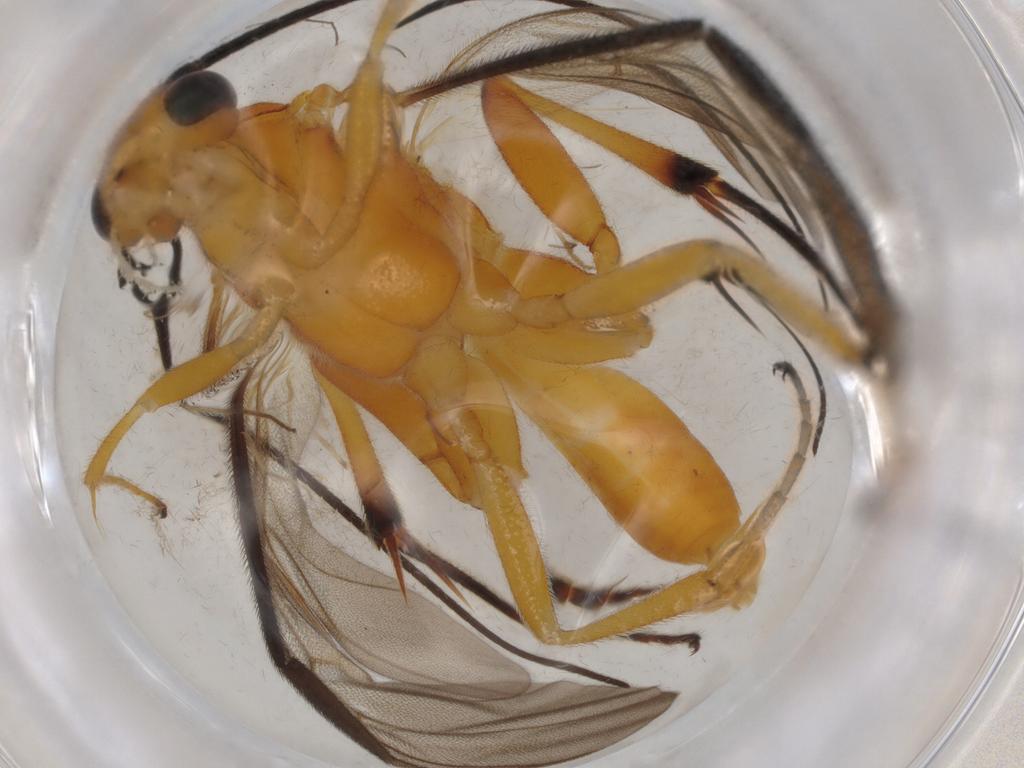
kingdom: Animalia
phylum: Arthropoda
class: Insecta
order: Hymenoptera
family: Braconidae
